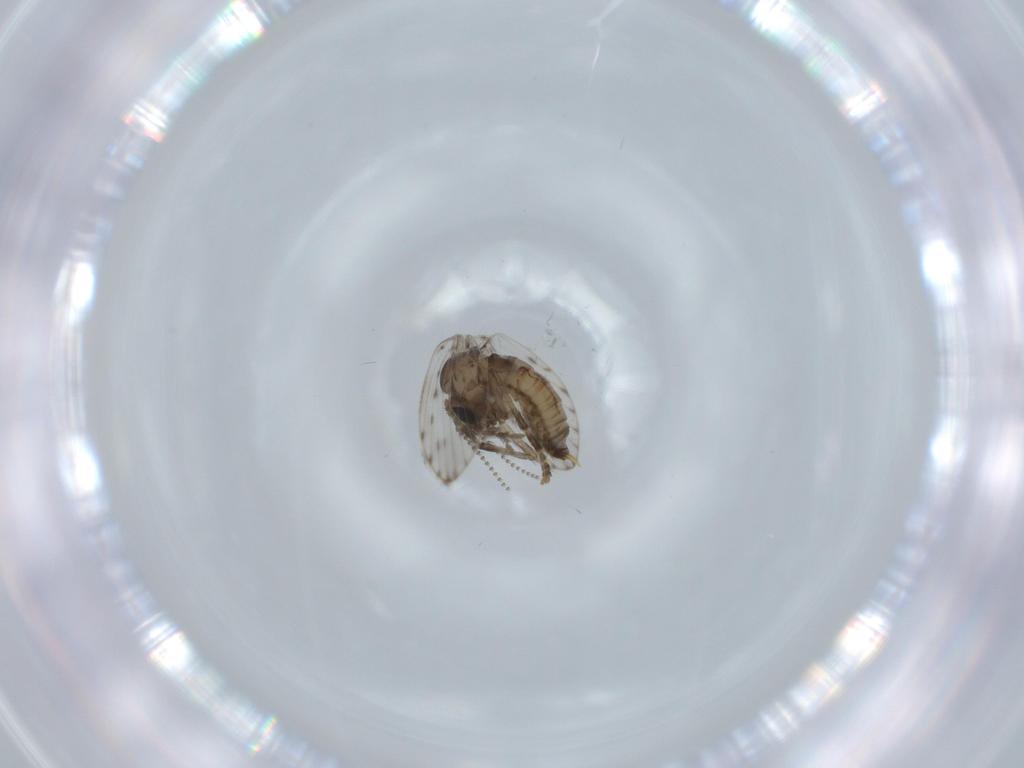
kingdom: Animalia
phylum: Arthropoda
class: Insecta
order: Diptera
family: Psychodidae
